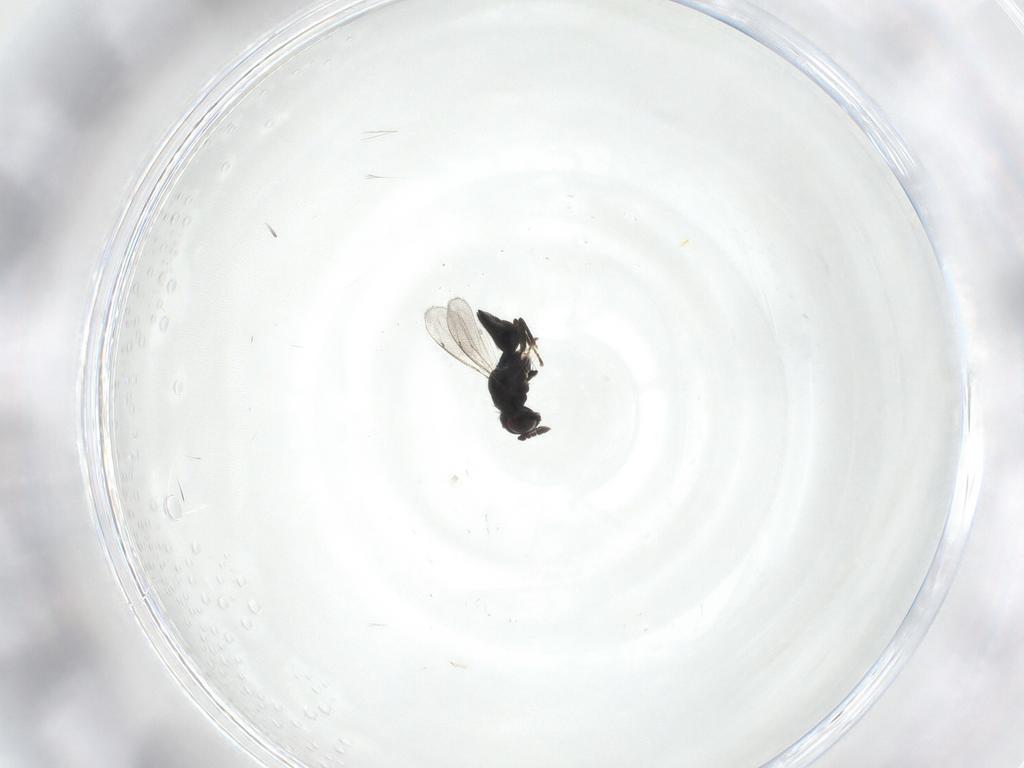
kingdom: Animalia
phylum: Arthropoda
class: Insecta
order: Hymenoptera
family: Eulophidae
